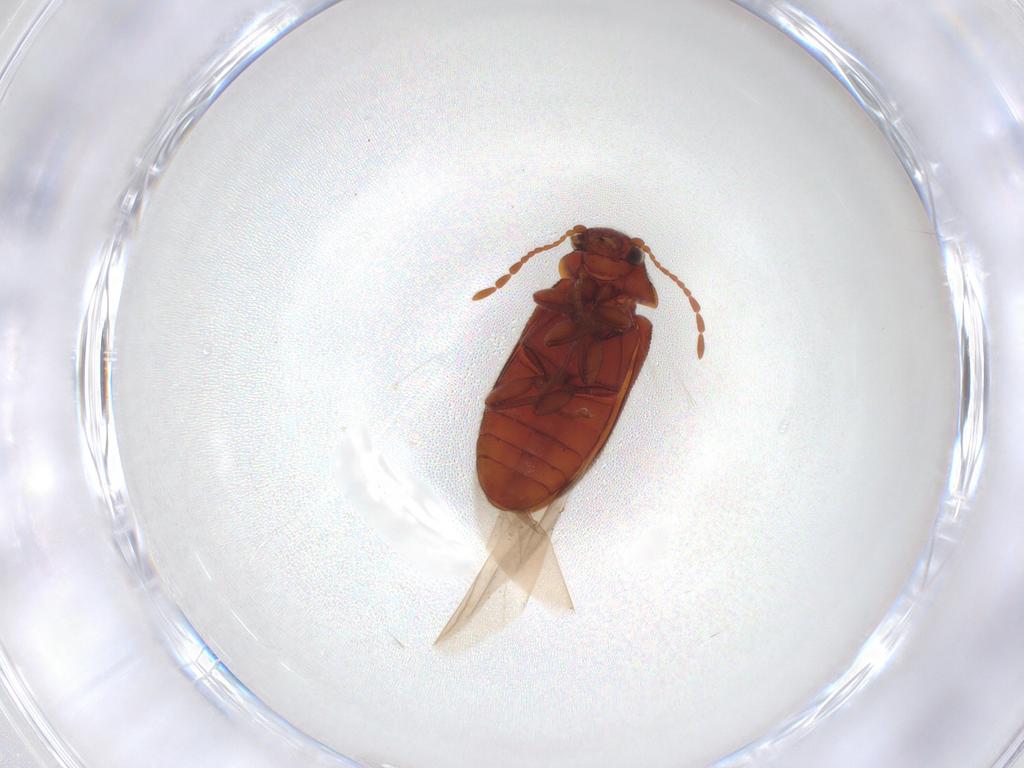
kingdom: Animalia
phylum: Arthropoda
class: Insecta
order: Coleoptera
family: Ptinidae
